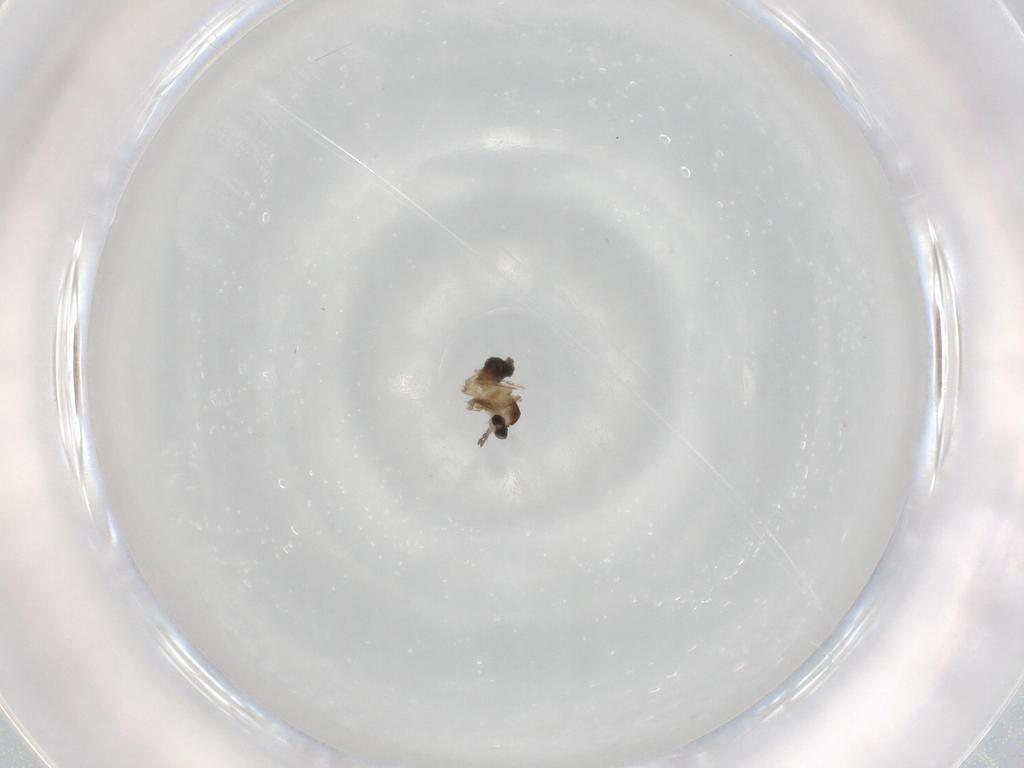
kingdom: Animalia
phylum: Arthropoda
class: Insecta
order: Diptera
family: Cecidomyiidae
